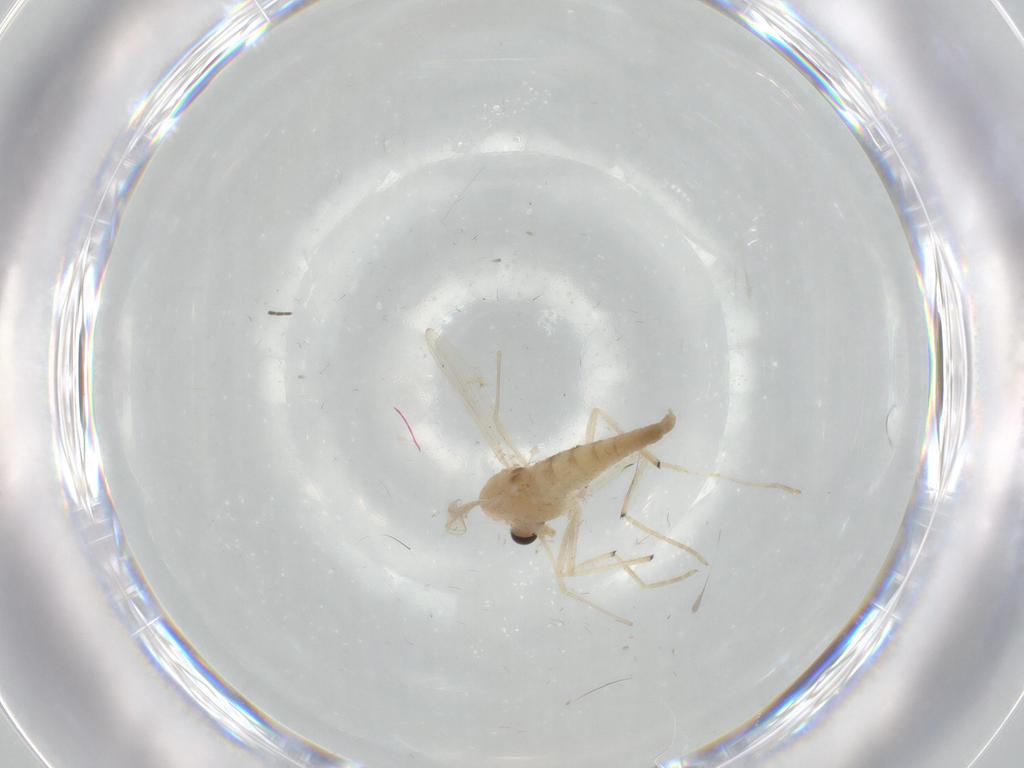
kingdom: Animalia
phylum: Arthropoda
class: Insecta
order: Diptera
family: Chironomidae
